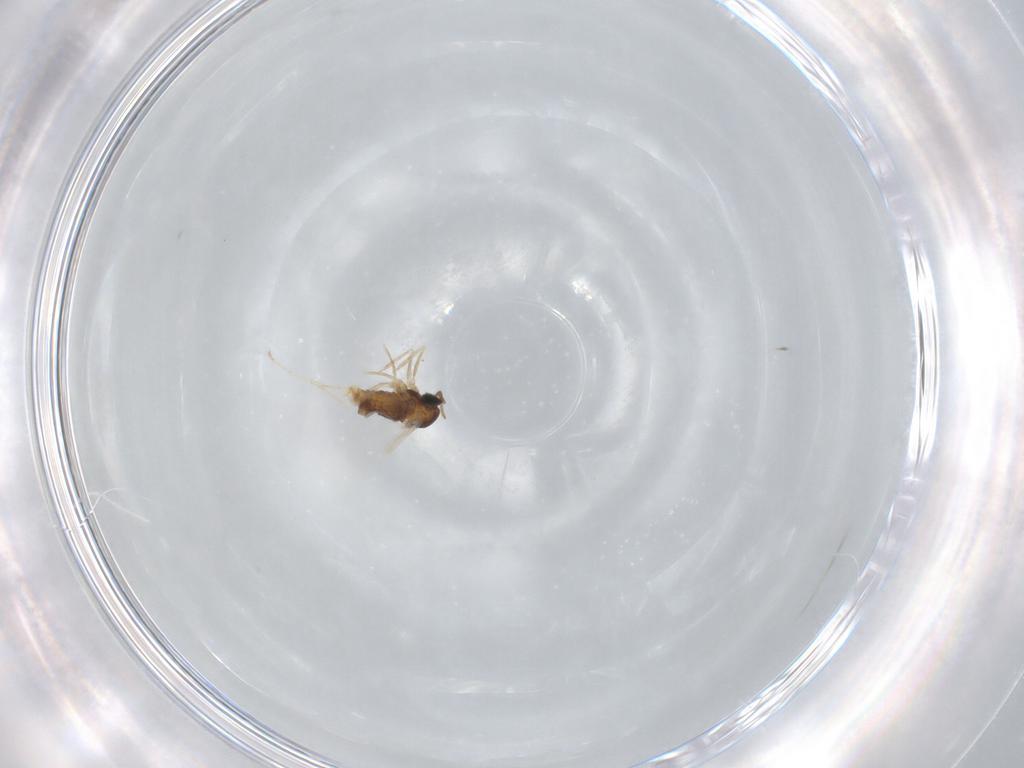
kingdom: Animalia
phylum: Arthropoda
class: Insecta
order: Diptera
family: Cecidomyiidae
